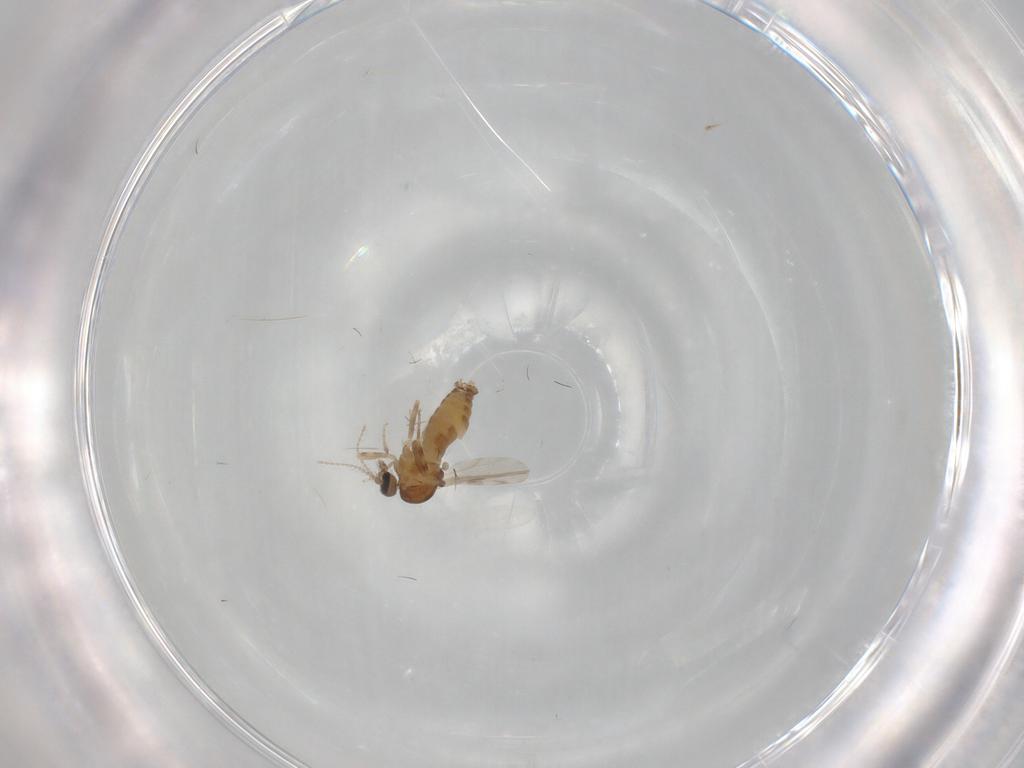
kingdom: Animalia
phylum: Arthropoda
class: Insecta
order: Diptera
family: Ceratopogonidae
